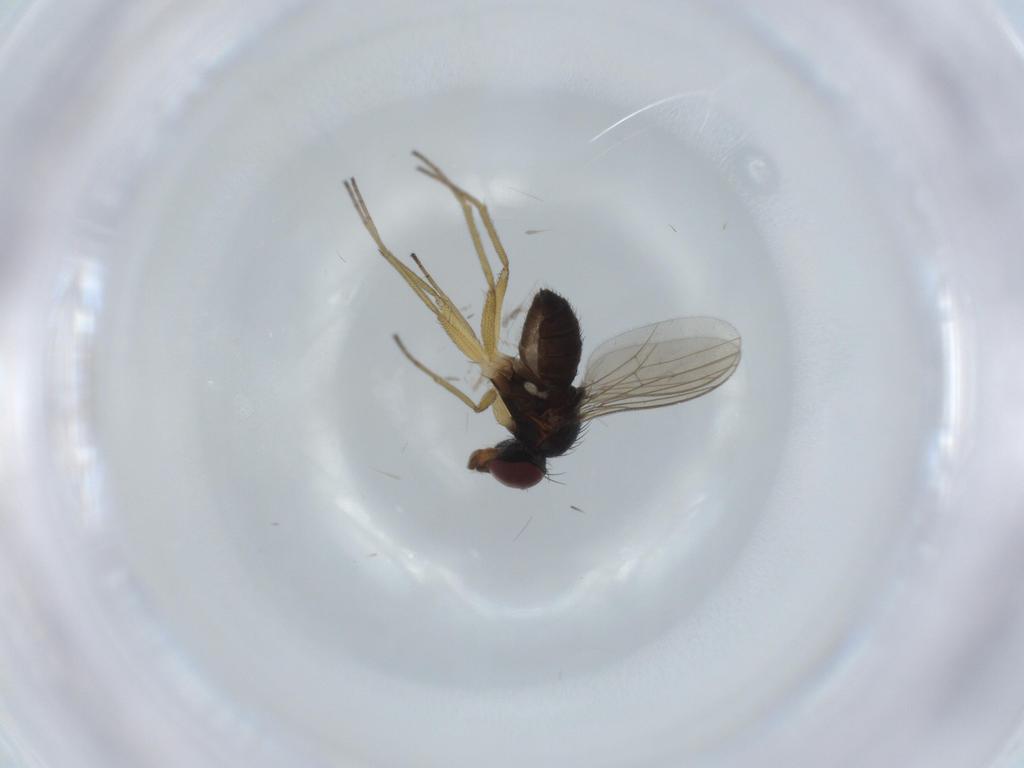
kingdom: Animalia
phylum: Arthropoda
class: Insecta
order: Diptera
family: Dolichopodidae
